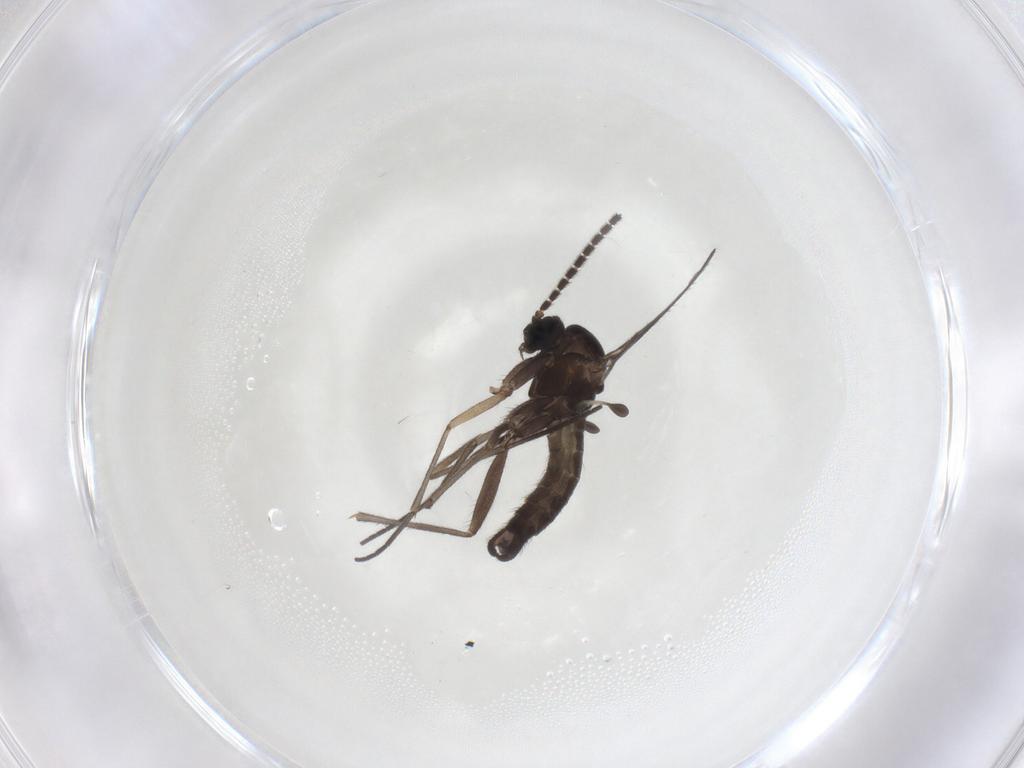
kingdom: Animalia
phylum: Arthropoda
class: Insecta
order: Diptera
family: Sciaridae
